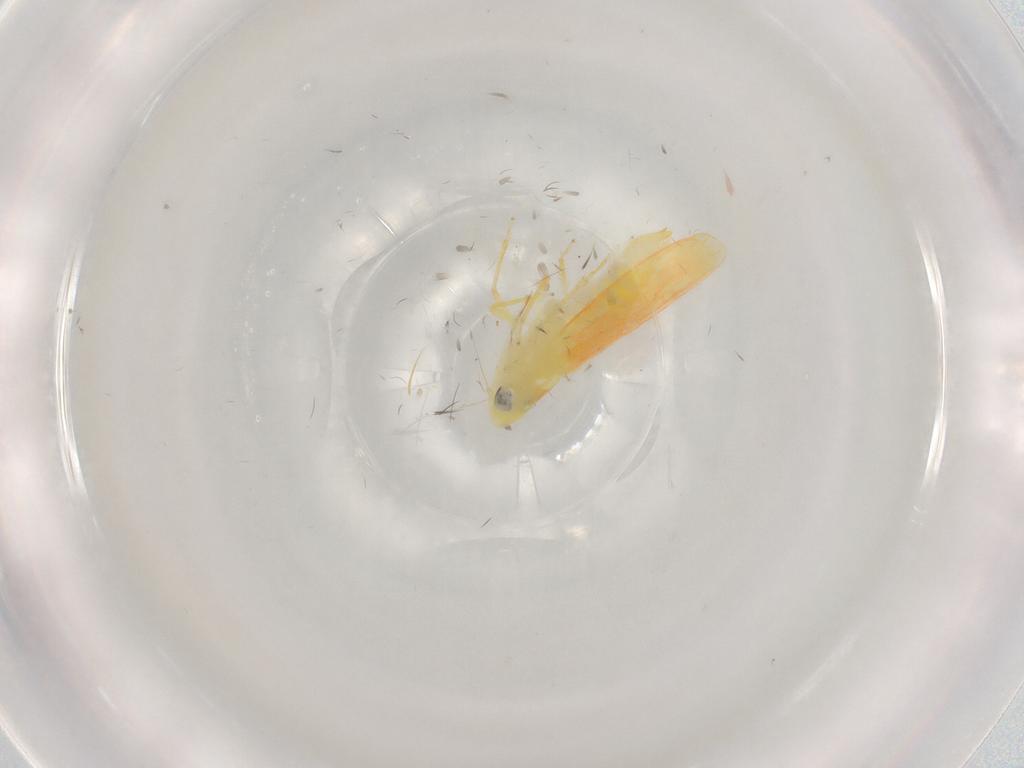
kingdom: Animalia
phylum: Arthropoda
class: Insecta
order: Hemiptera
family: Cicadellidae
